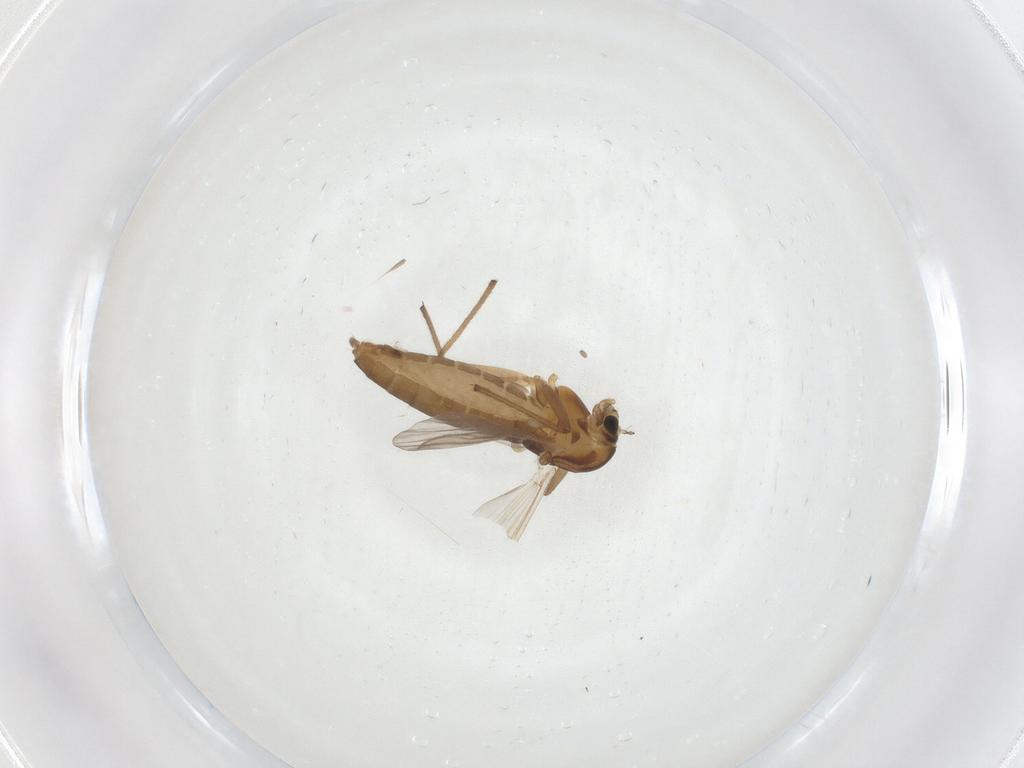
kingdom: Animalia
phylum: Arthropoda
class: Insecta
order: Diptera
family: Chironomidae
